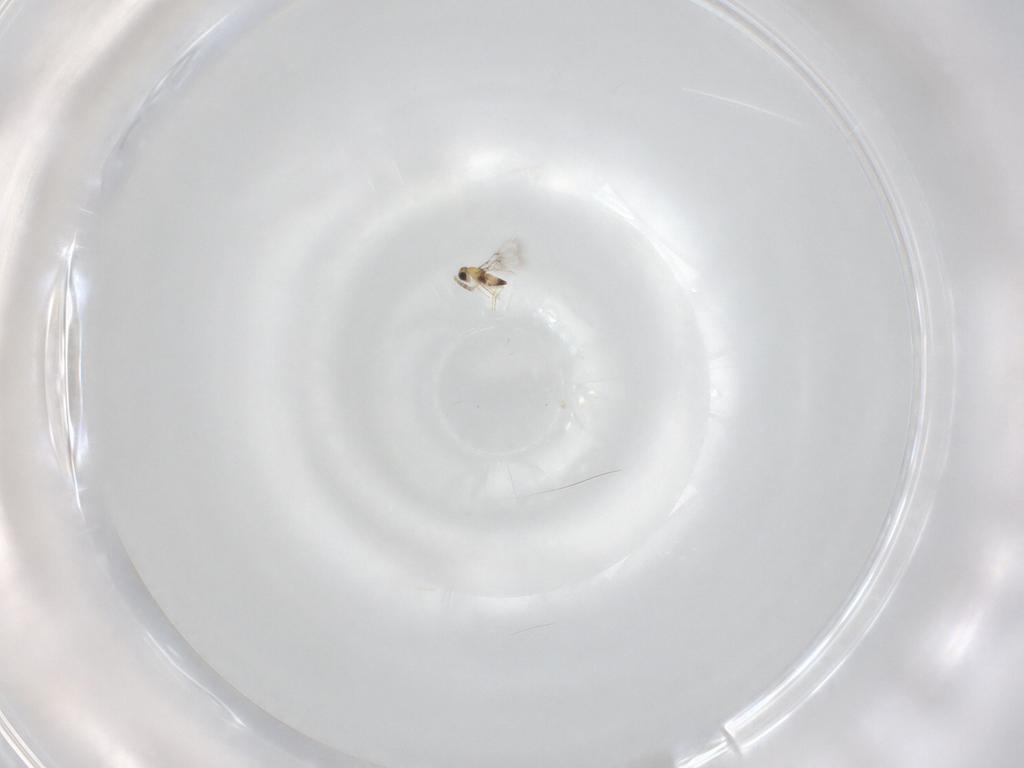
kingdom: Animalia
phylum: Arthropoda
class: Insecta
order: Hymenoptera
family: Trichogrammatidae
